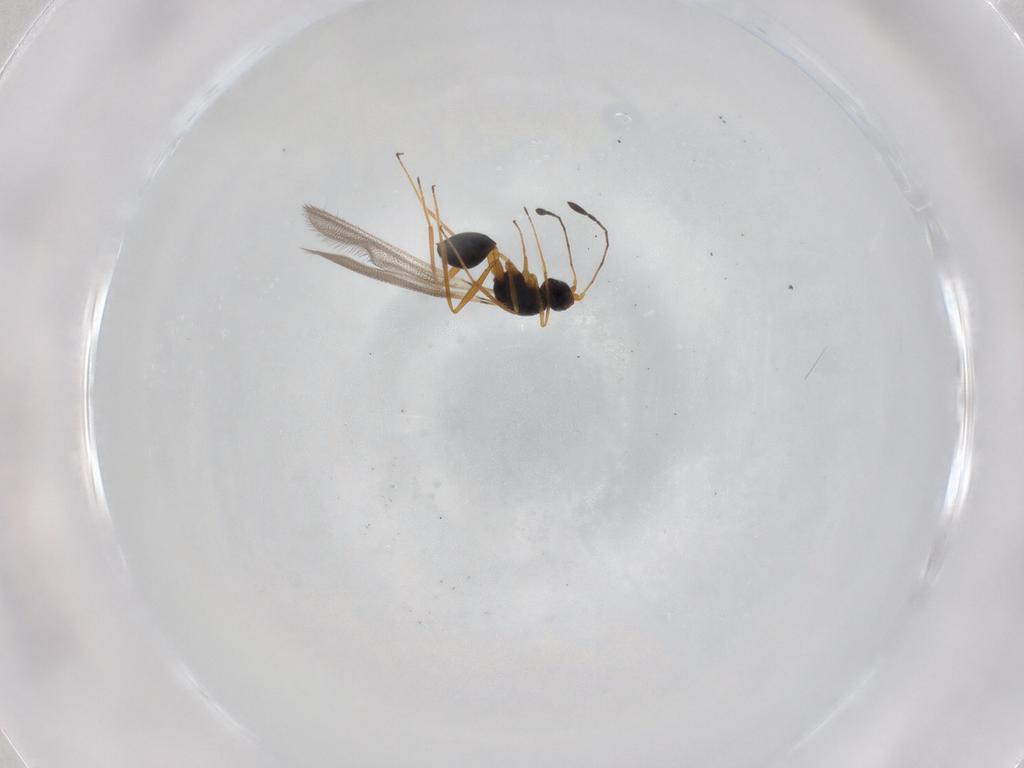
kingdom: Animalia
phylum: Arthropoda
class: Insecta
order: Hymenoptera
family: Mymaridae
